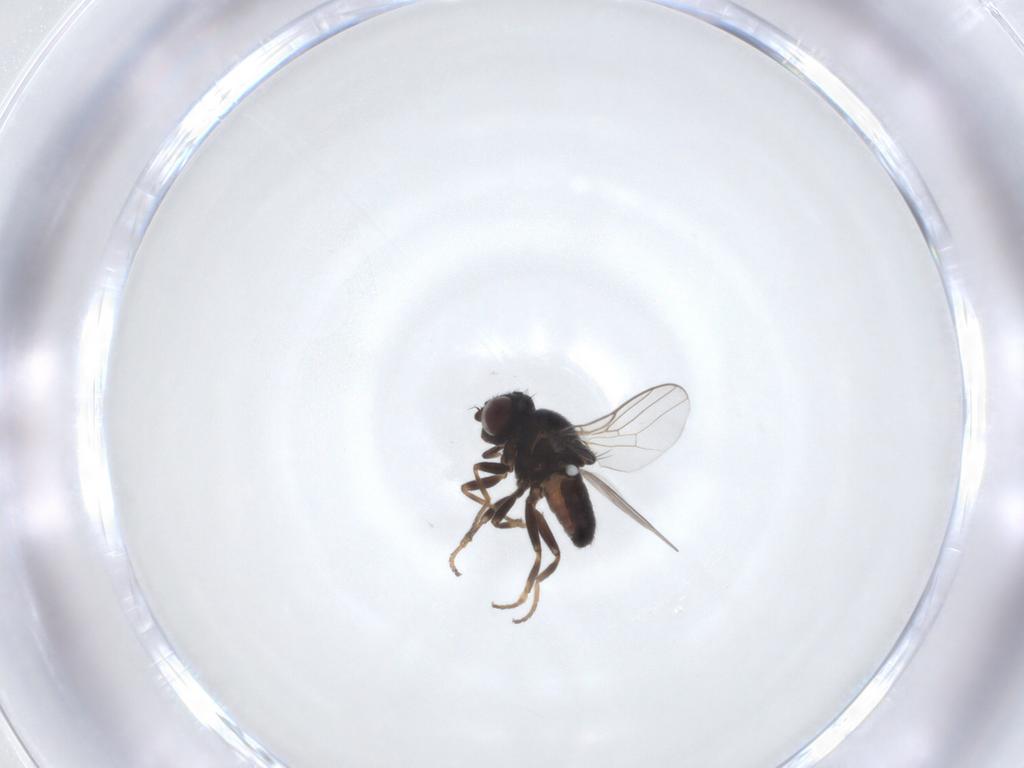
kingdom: Animalia
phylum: Arthropoda
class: Insecta
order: Diptera
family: Chloropidae
